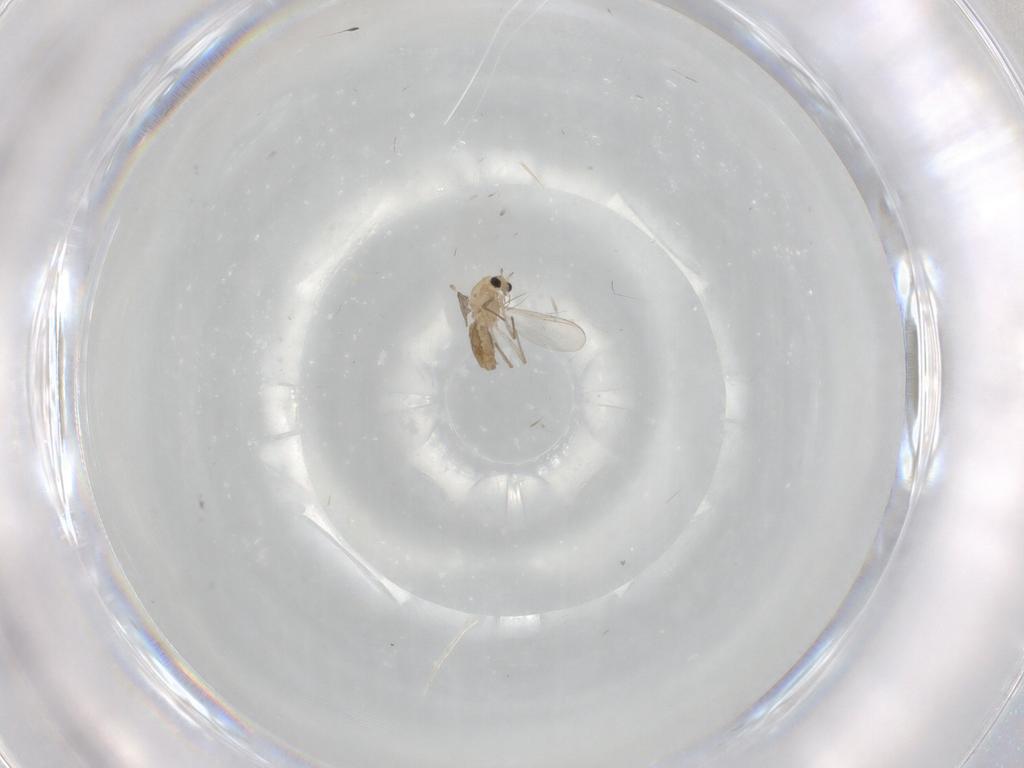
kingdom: Animalia
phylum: Arthropoda
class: Insecta
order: Diptera
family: Chironomidae
